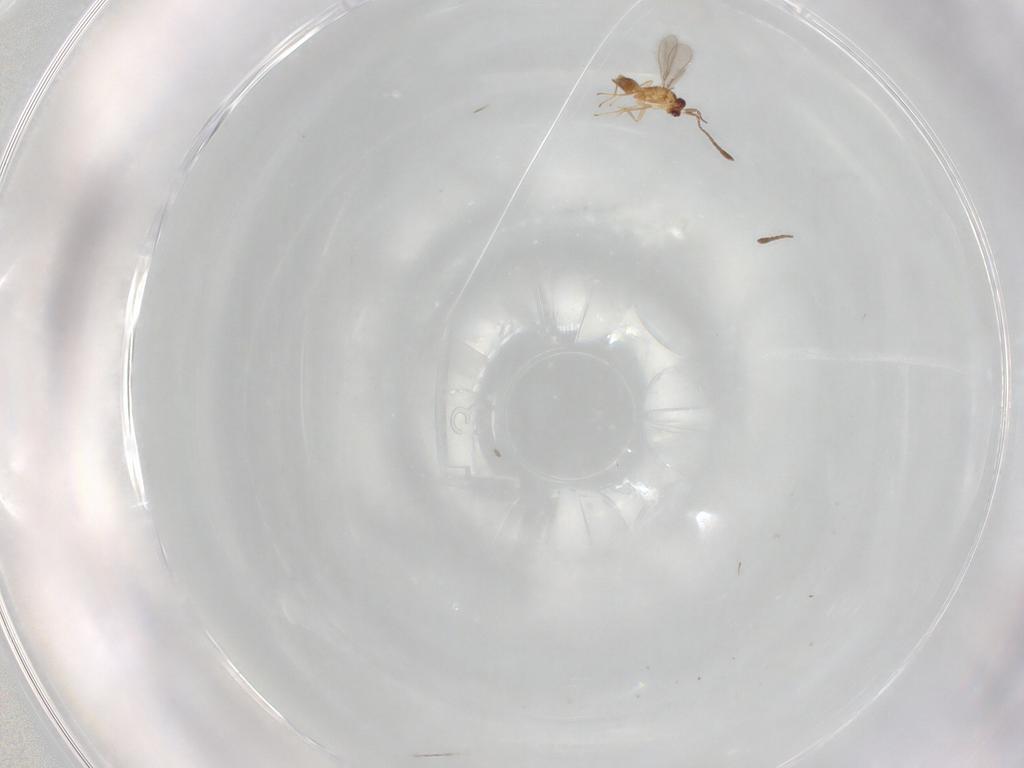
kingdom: Animalia
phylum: Arthropoda
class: Insecta
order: Hymenoptera
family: Mymaridae
